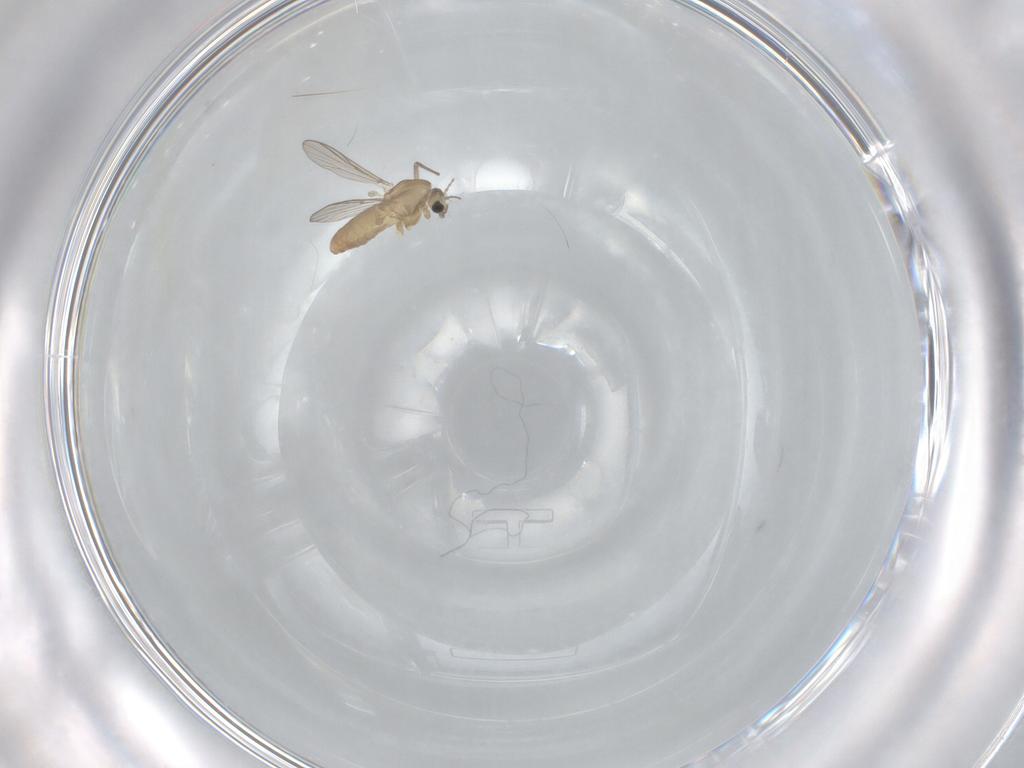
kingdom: Animalia
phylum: Arthropoda
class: Insecta
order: Diptera
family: Chironomidae
